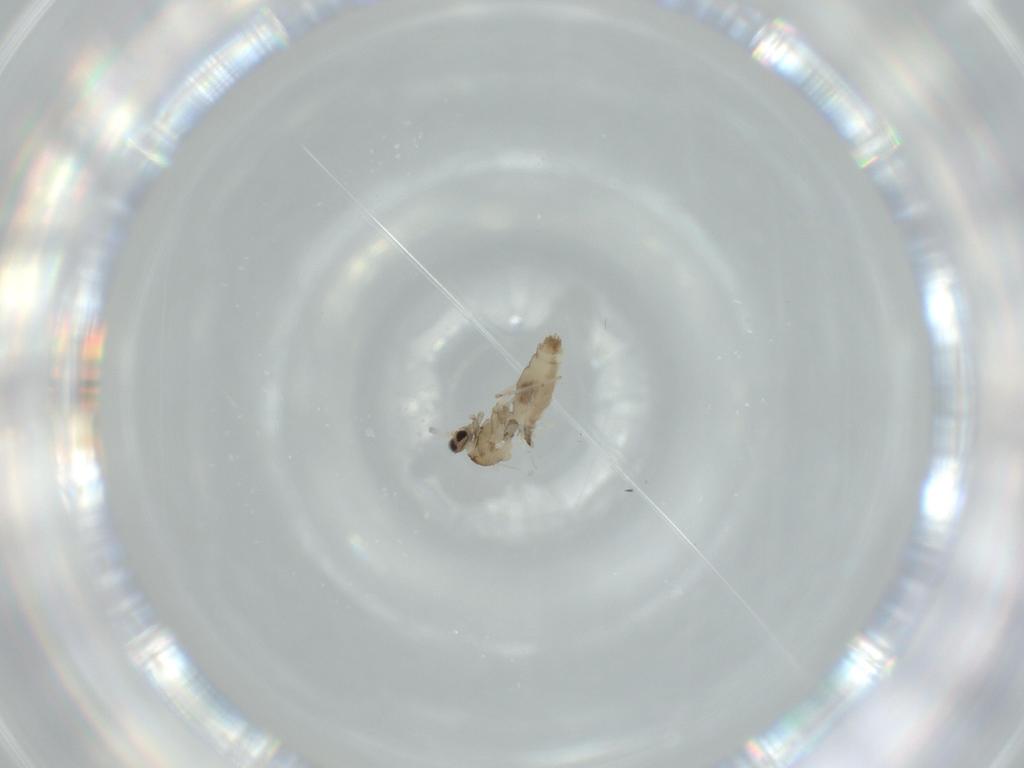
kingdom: Animalia
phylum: Arthropoda
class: Insecta
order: Diptera
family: Cecidomyiidae
